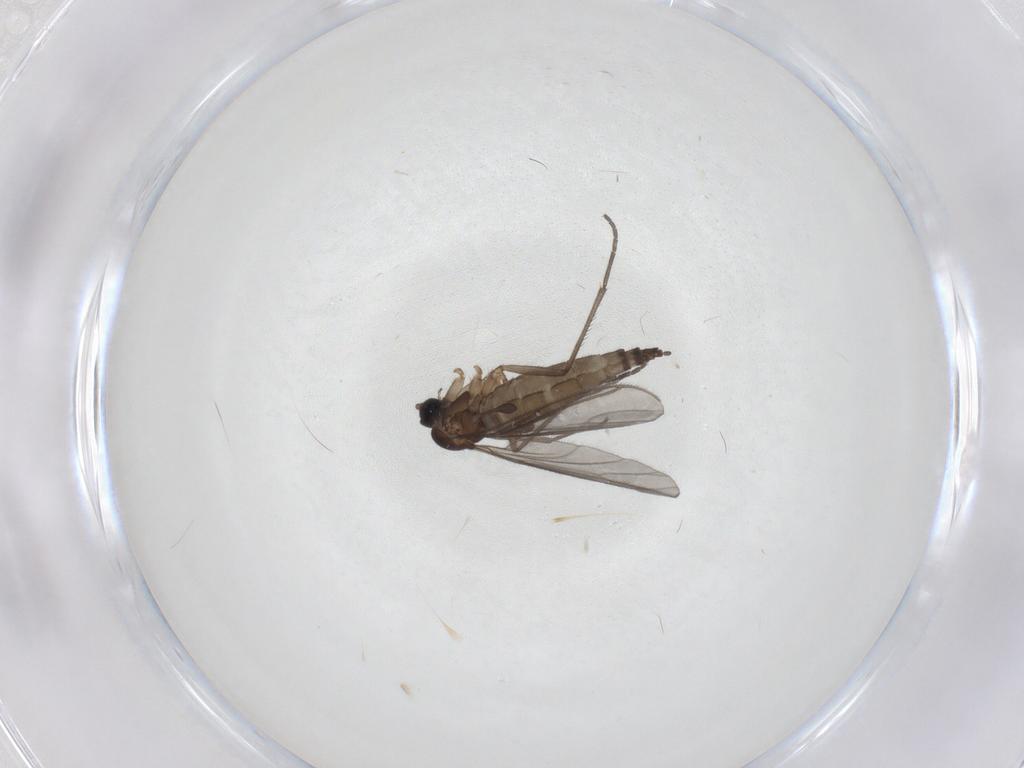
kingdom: Animalia
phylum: Arthropoda
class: Insecta
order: Diptera
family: Sciaridae
